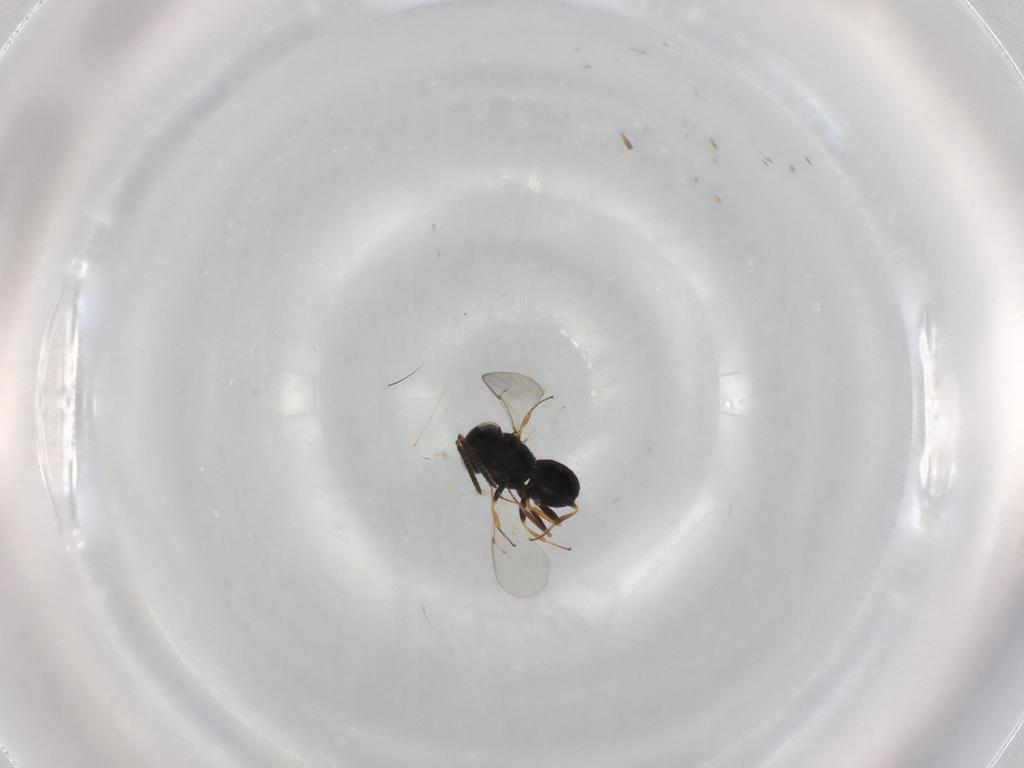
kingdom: Animalia
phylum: Arthropoda
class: Insecta
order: Coleoptera
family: Curculionidae
